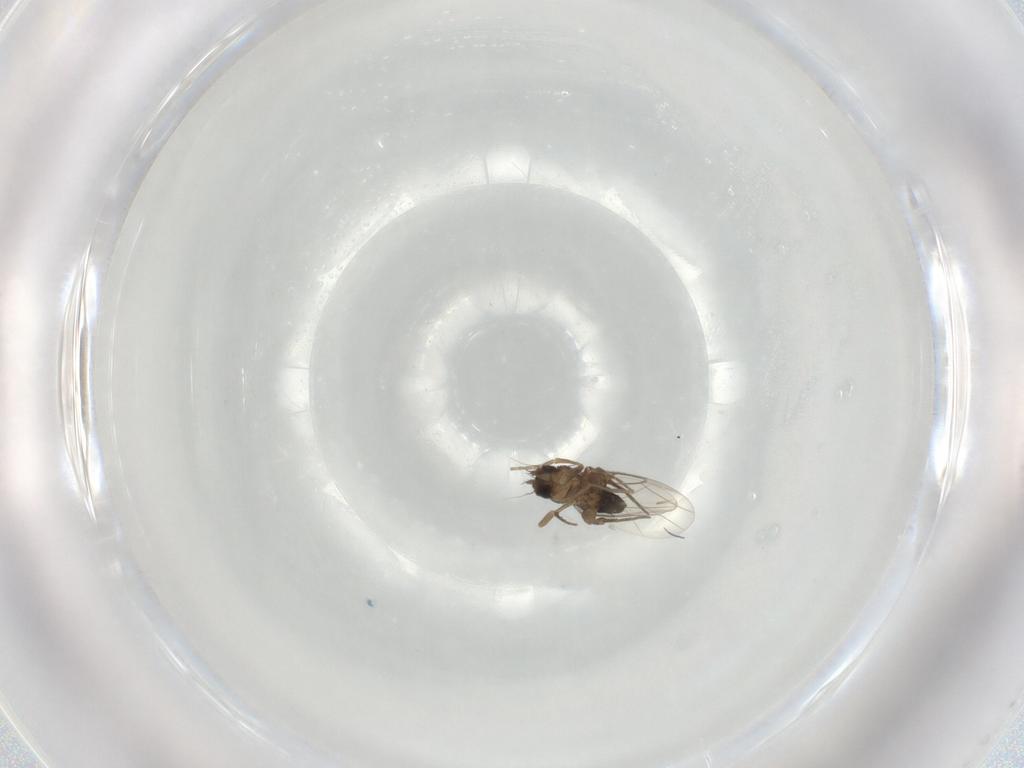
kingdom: Animalia
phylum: Arthropoda
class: Insecta
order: Diptera
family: Phoridae
